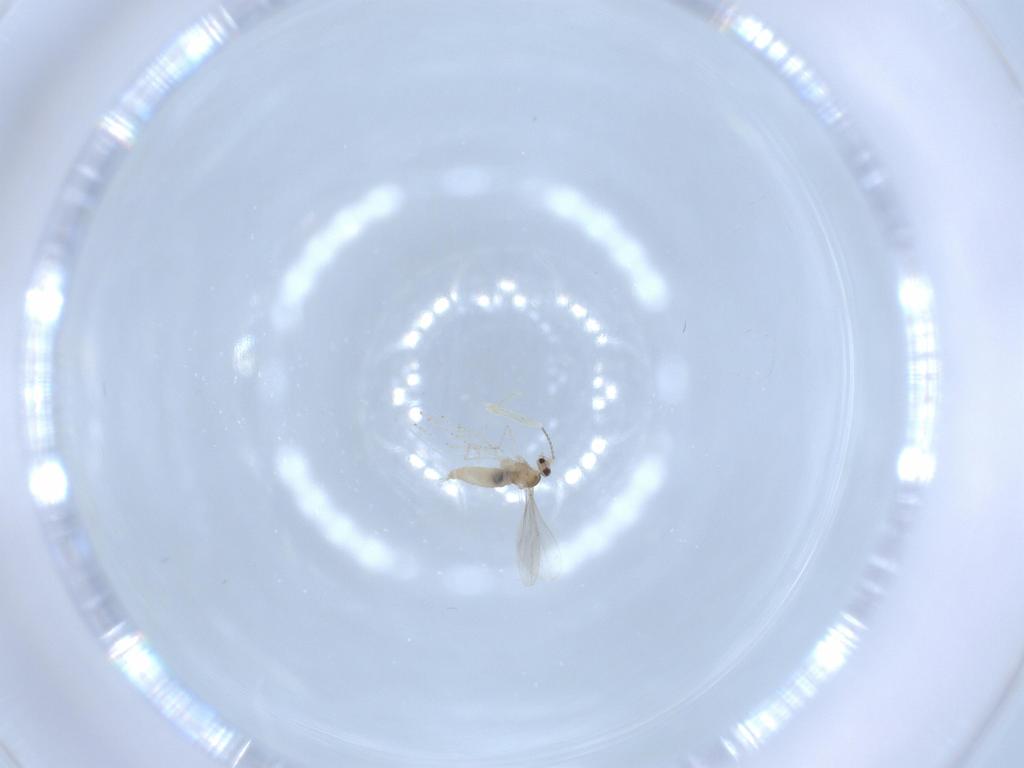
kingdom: Animalia
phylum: Arthropoda
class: Insecta
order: Diptera
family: Cecidomyiidae
